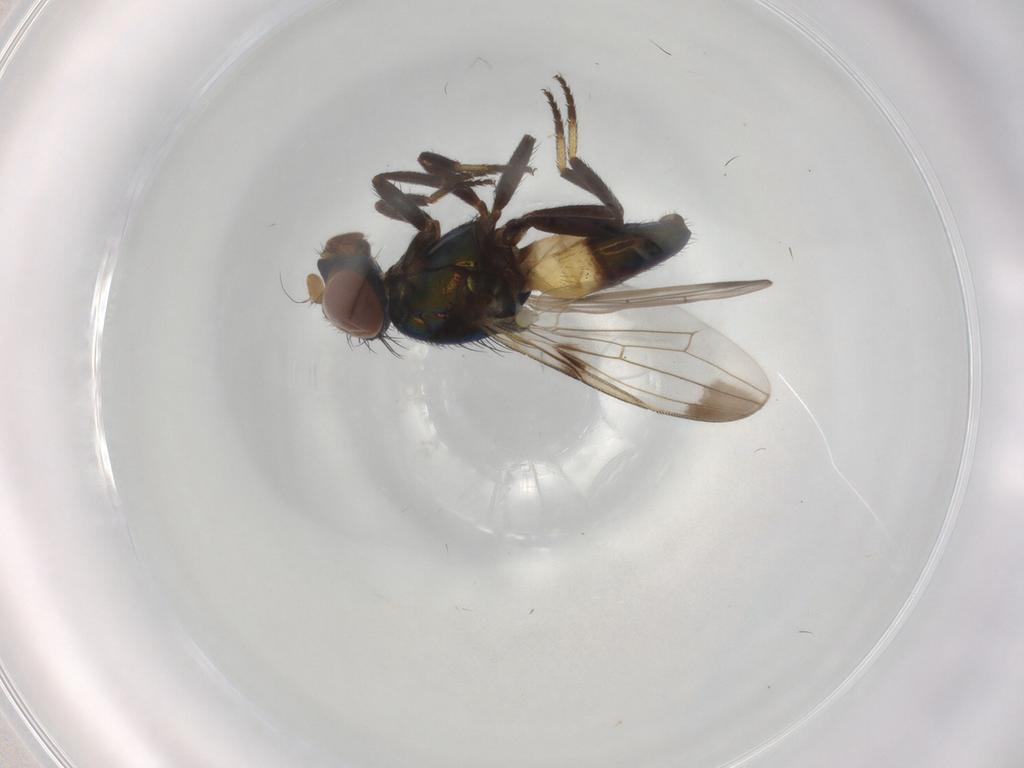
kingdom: Animalia
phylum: Arthropoda
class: Insecta
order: Diptera
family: Ulidiidae
